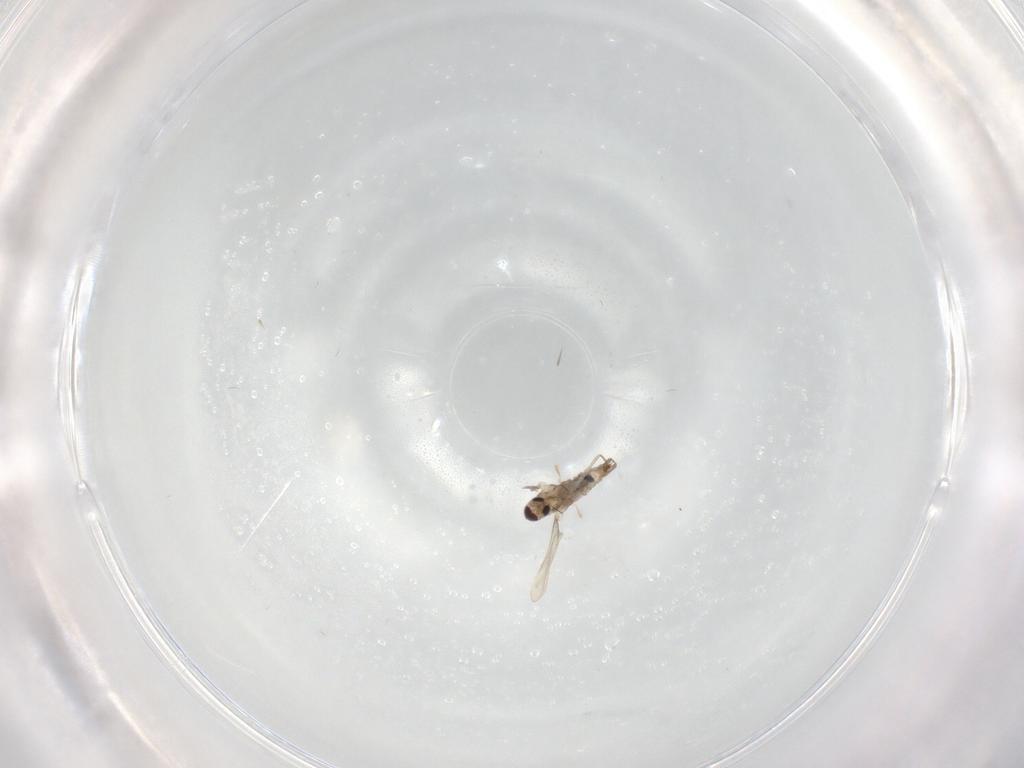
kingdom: Animalia
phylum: Arthropoda
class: Insecta
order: Diptera
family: Cecidomyiidae
